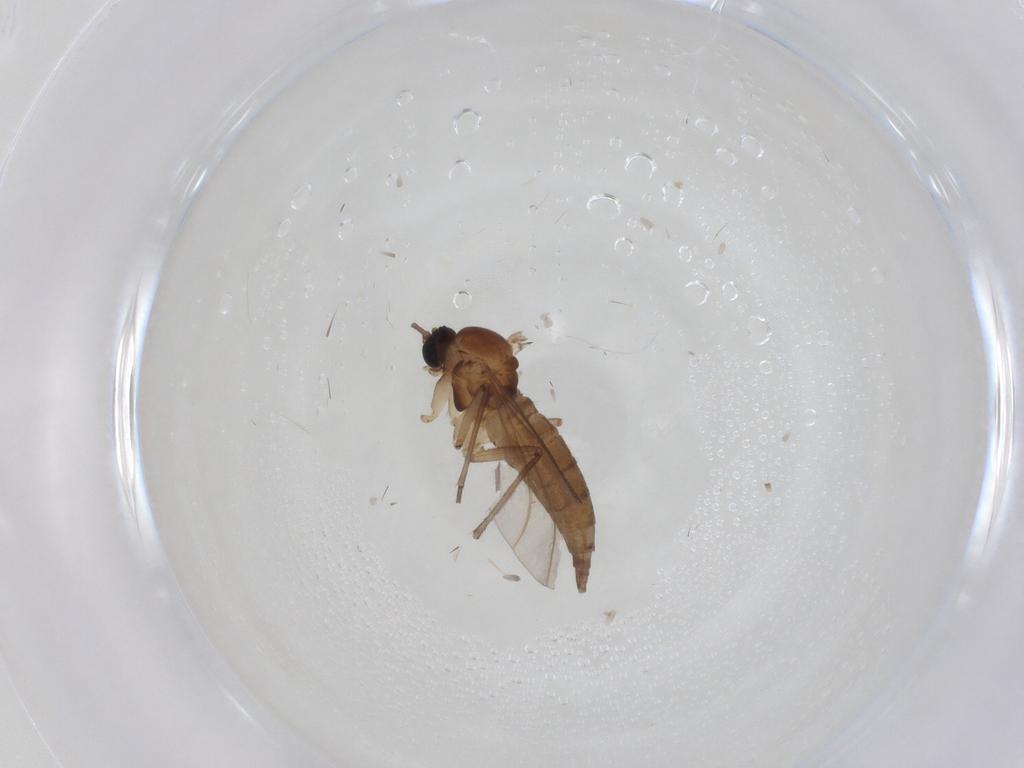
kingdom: Animalia
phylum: Arthropoda
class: Insecta
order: Diptera
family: Sciaridae
